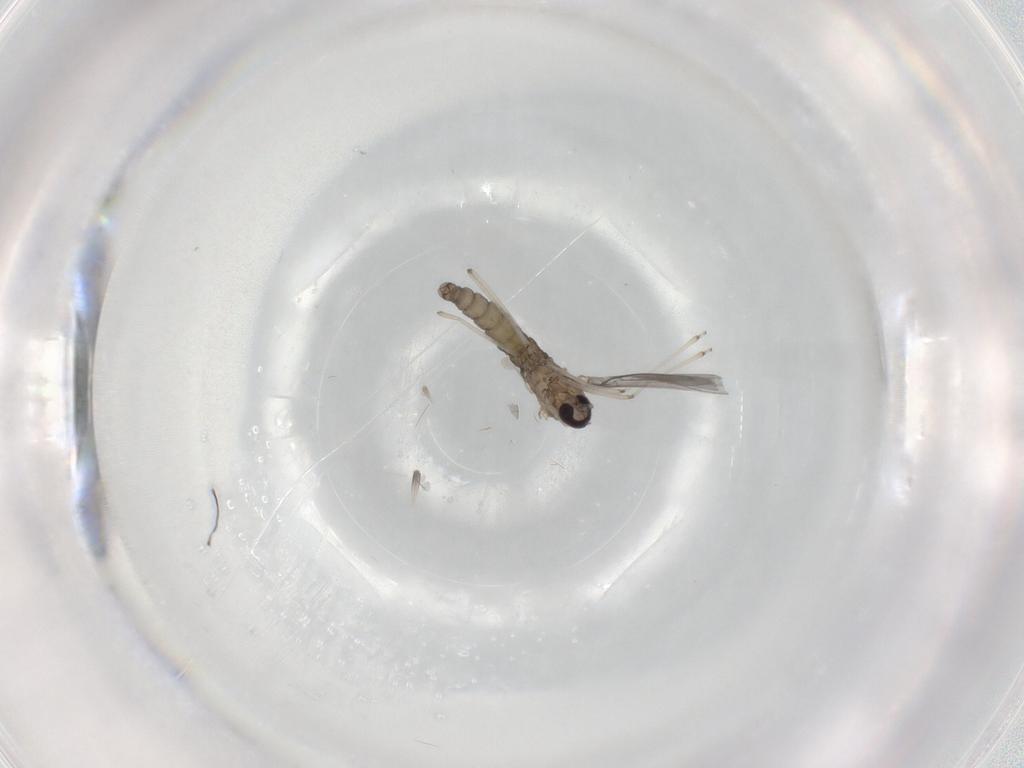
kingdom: Animalia
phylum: Arthropoda
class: Insecta
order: Diptera
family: Cecidomyiidae
